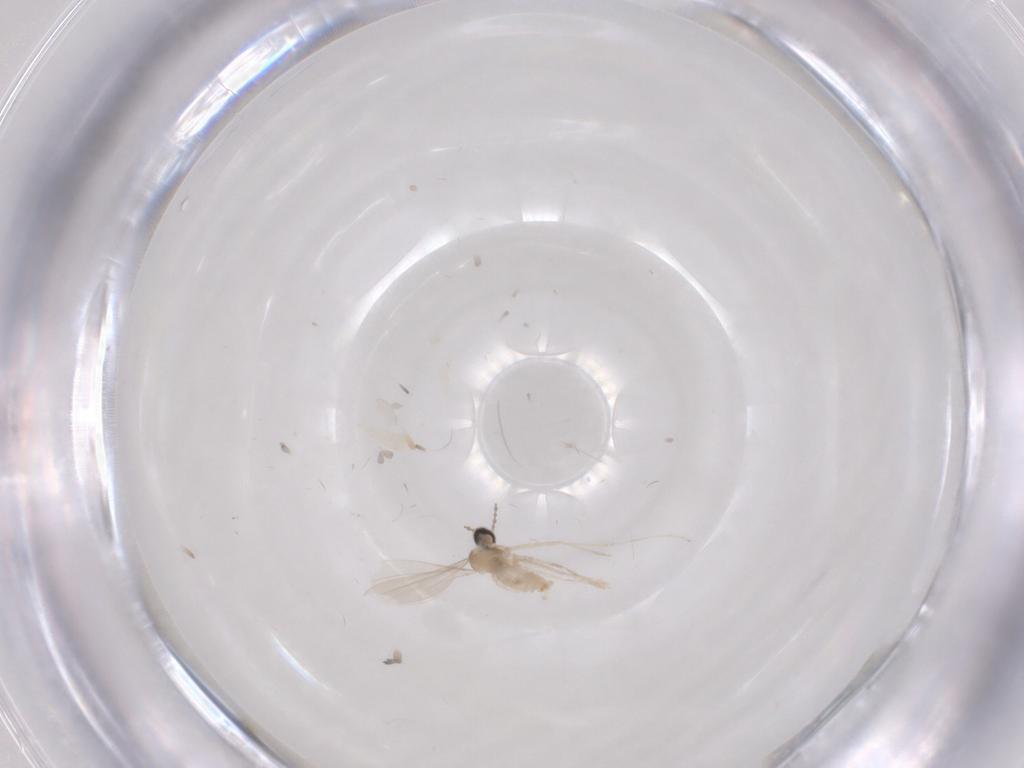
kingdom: Animalia
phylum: Arthropoda
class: Insecta
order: Diptera
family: Cecidomyiidae
